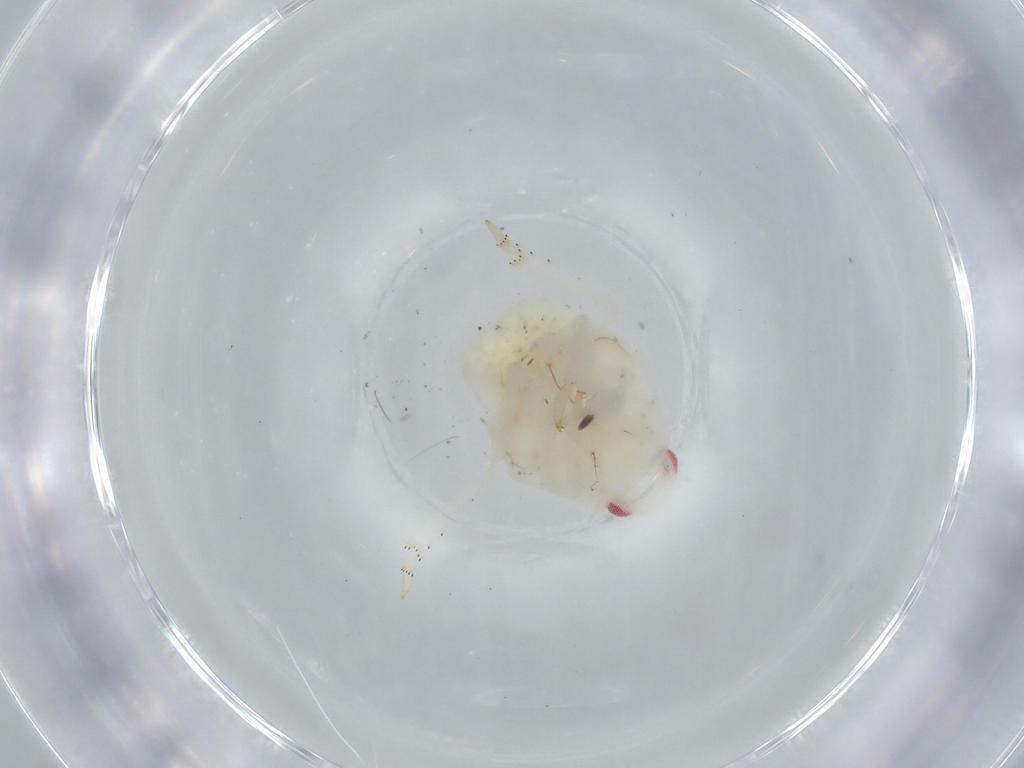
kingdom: Animalia
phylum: Arthropoda
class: Insecta
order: Hemiptera
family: Flatidae
